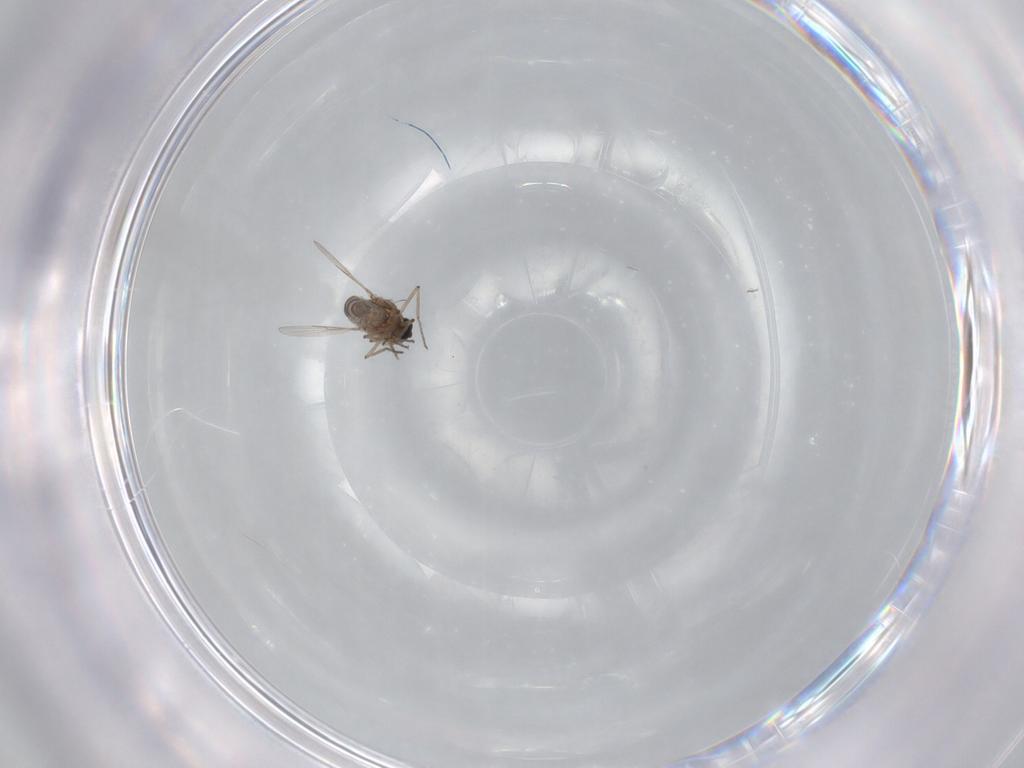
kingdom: Animalia
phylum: Arthropoda
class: Insecta
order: Diptera
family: Ceratopogonidae
